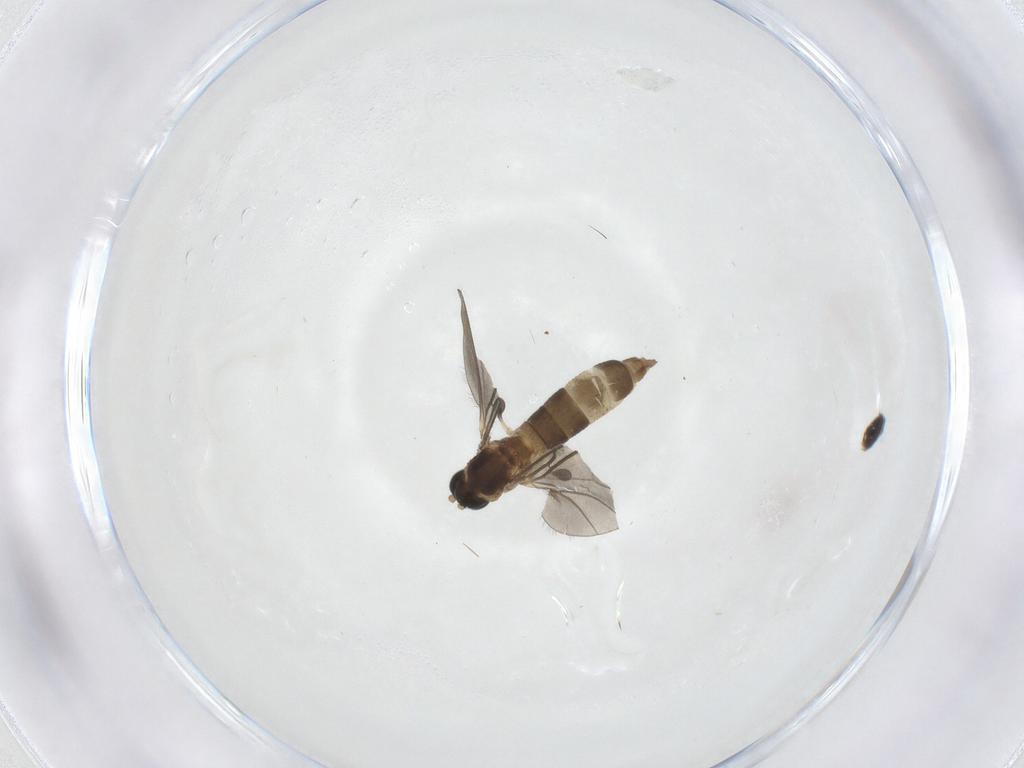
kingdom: Animalia
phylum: Arthropoda
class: Insecta
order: Diptera
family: Sciaridae
